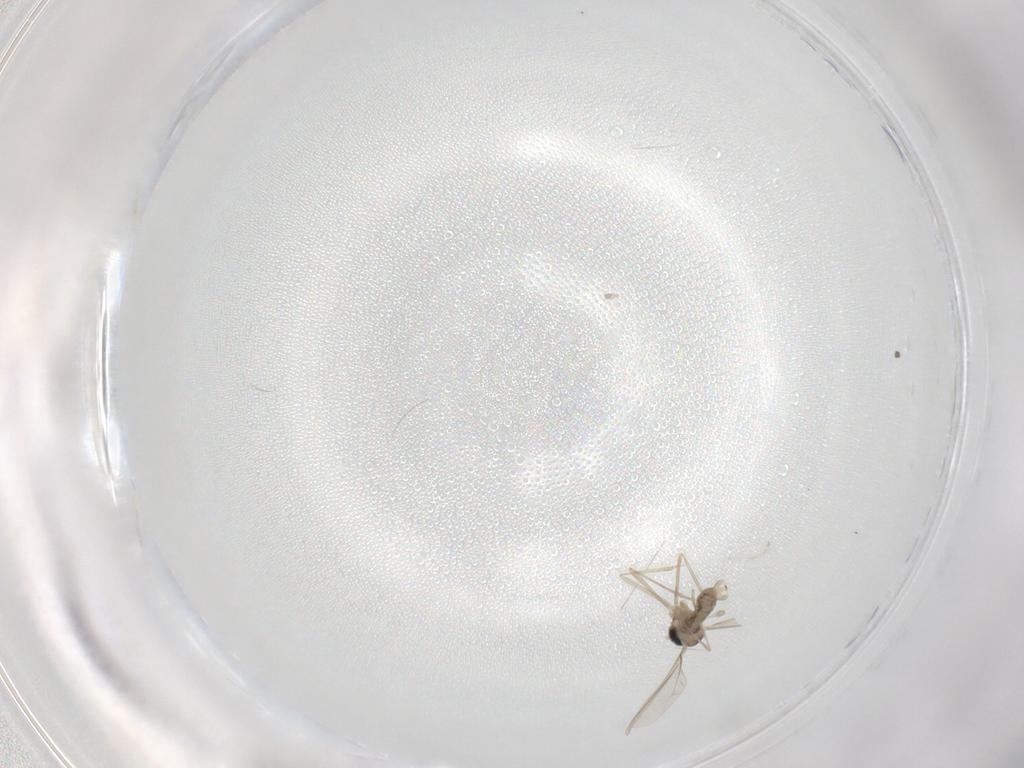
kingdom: Animalia
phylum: Arthropoda
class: Insecta
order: Diptera
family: Cecidomyiidae
